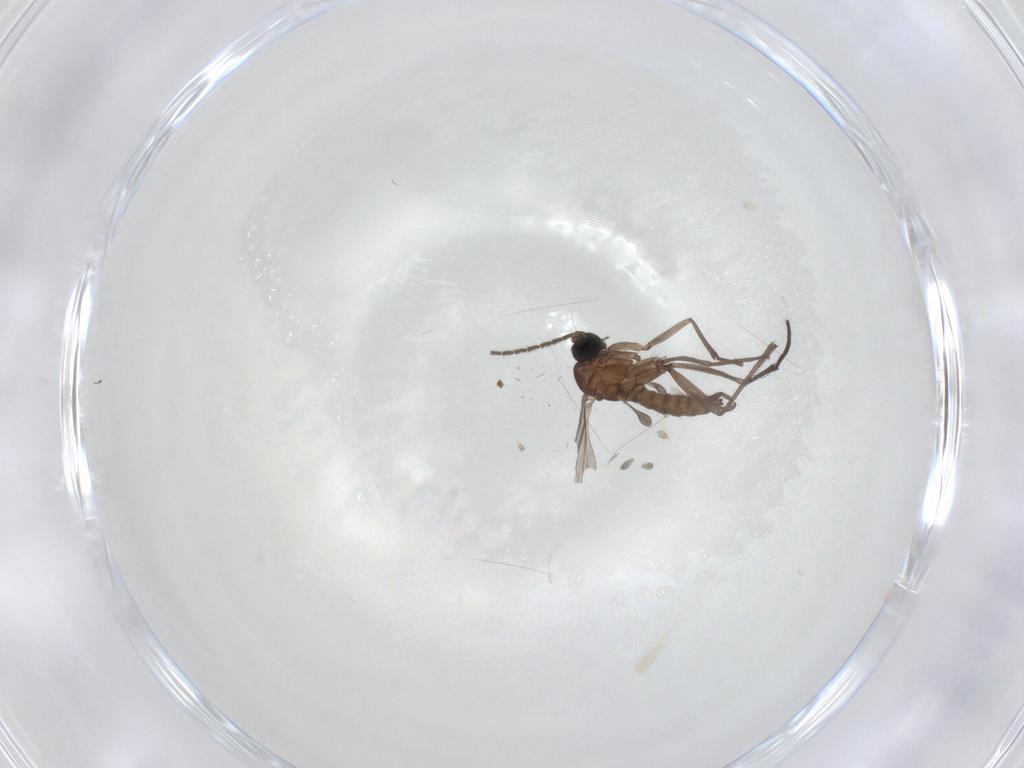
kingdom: Animalia
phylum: Arthropoda
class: Insecta
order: Diptera
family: Sciaridae
